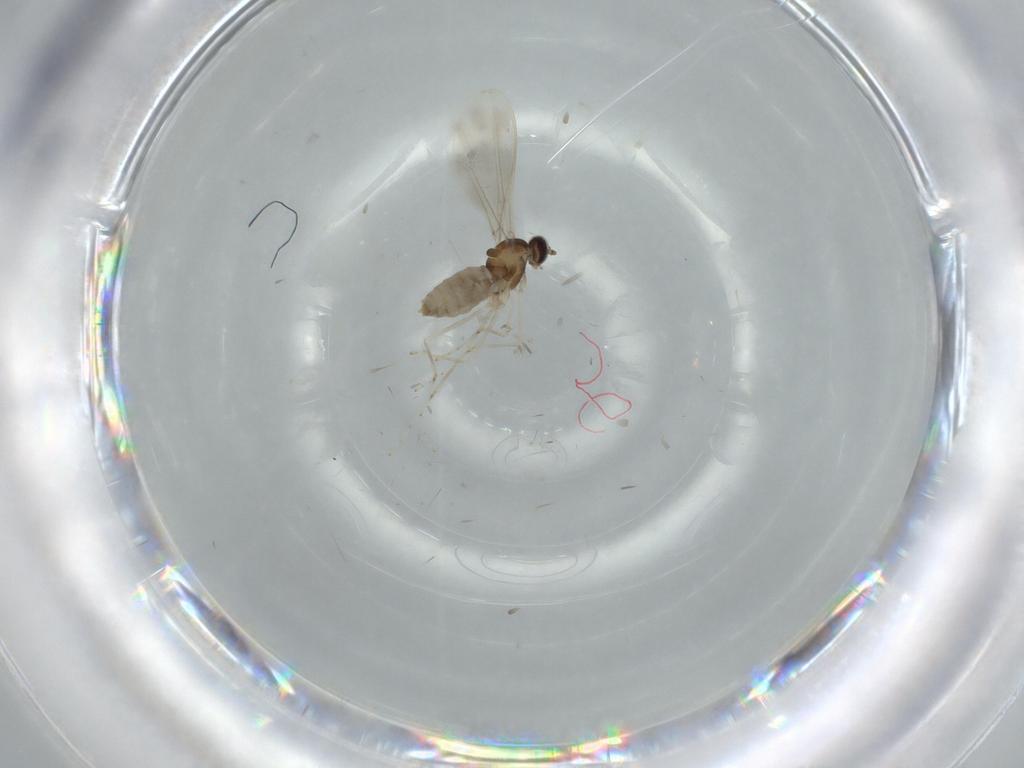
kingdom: Animalia
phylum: Arthropoda
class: Insecta
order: Diptera
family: Cecidomyiidae
